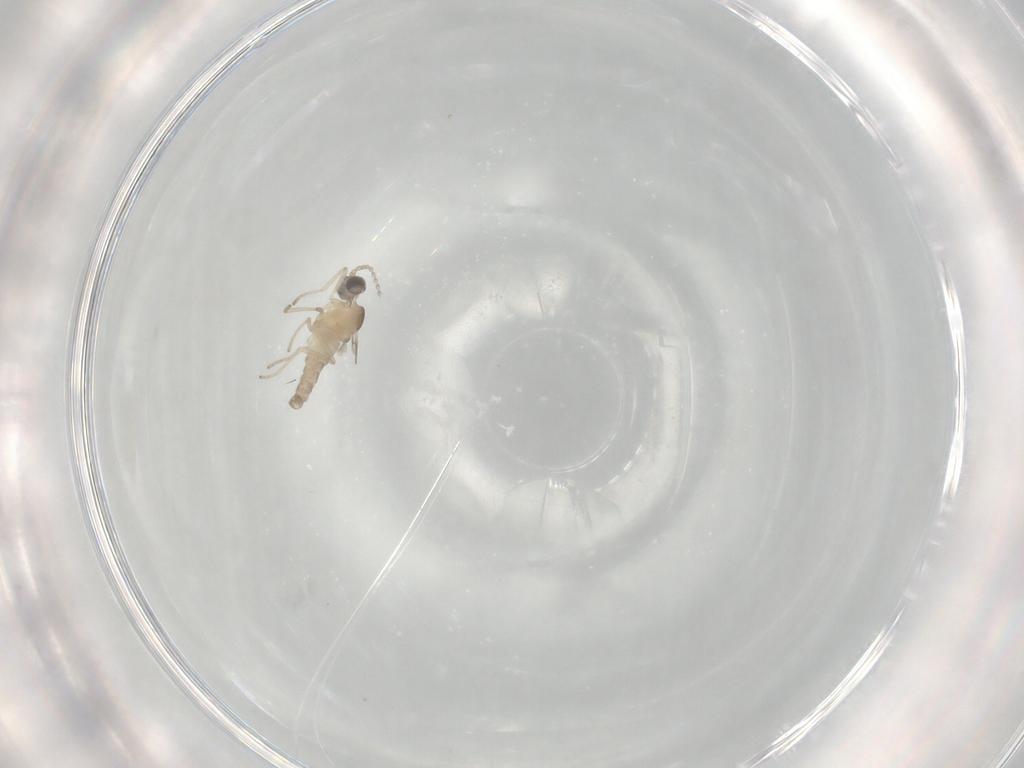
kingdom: Animalia
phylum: Arthropoda
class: Insecta
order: Diptera
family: Cecidomyiidae
